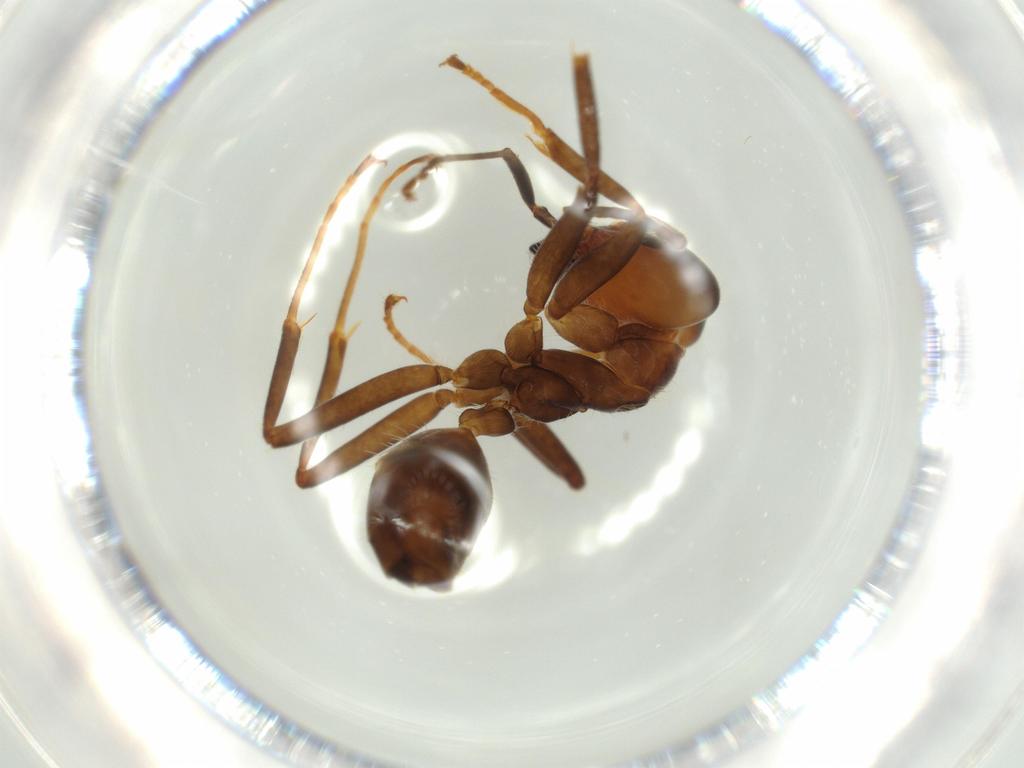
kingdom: Animalia
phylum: Arthropoda
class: Insecta
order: Hymenoptera
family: Formicidae
